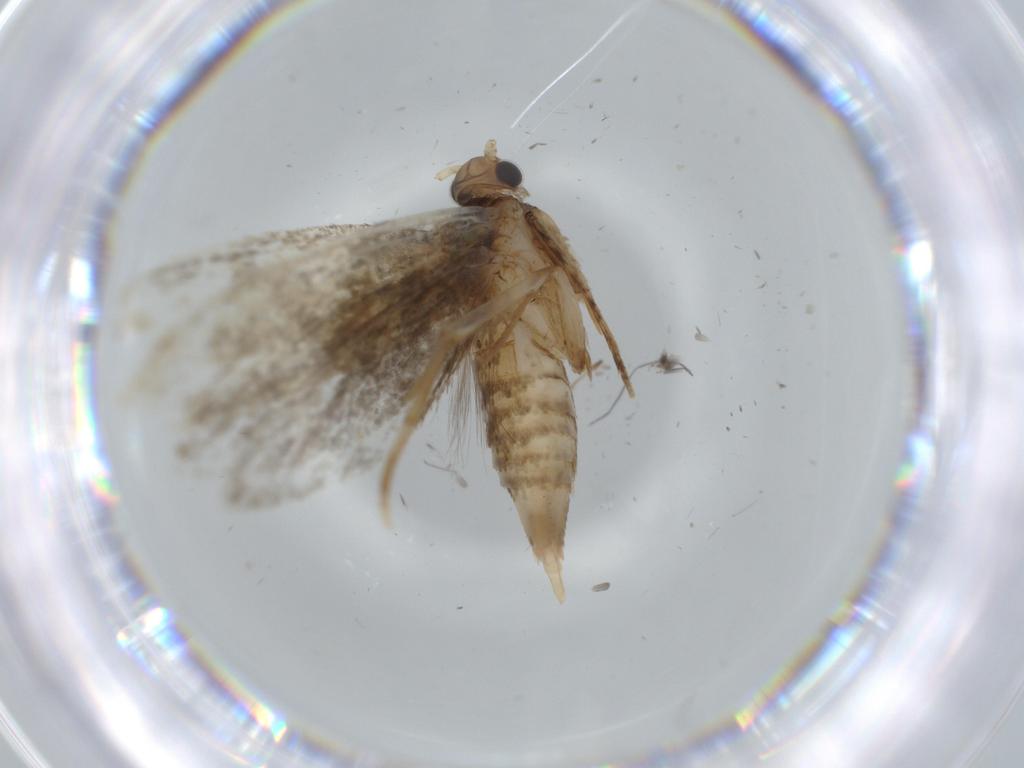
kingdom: Animalia
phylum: Arthropoda
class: Insecta
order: Lepidoptera
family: Tineidae
